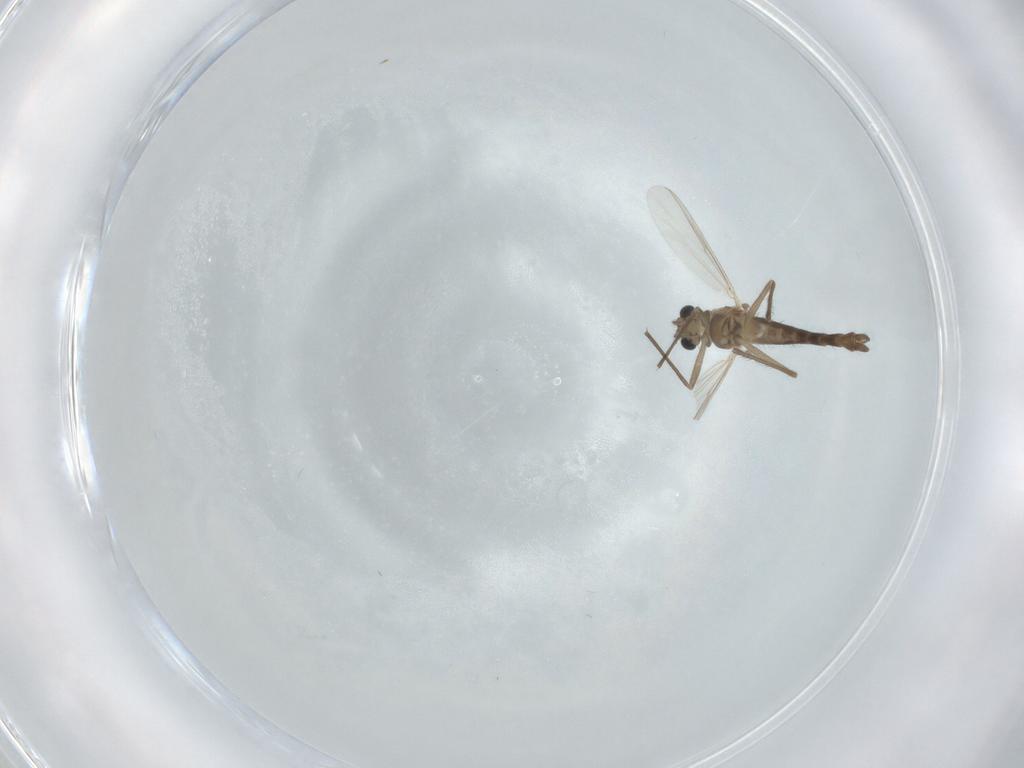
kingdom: Animalia
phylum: Arthropoda
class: Insecta
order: Diptera
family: Chironomidae
